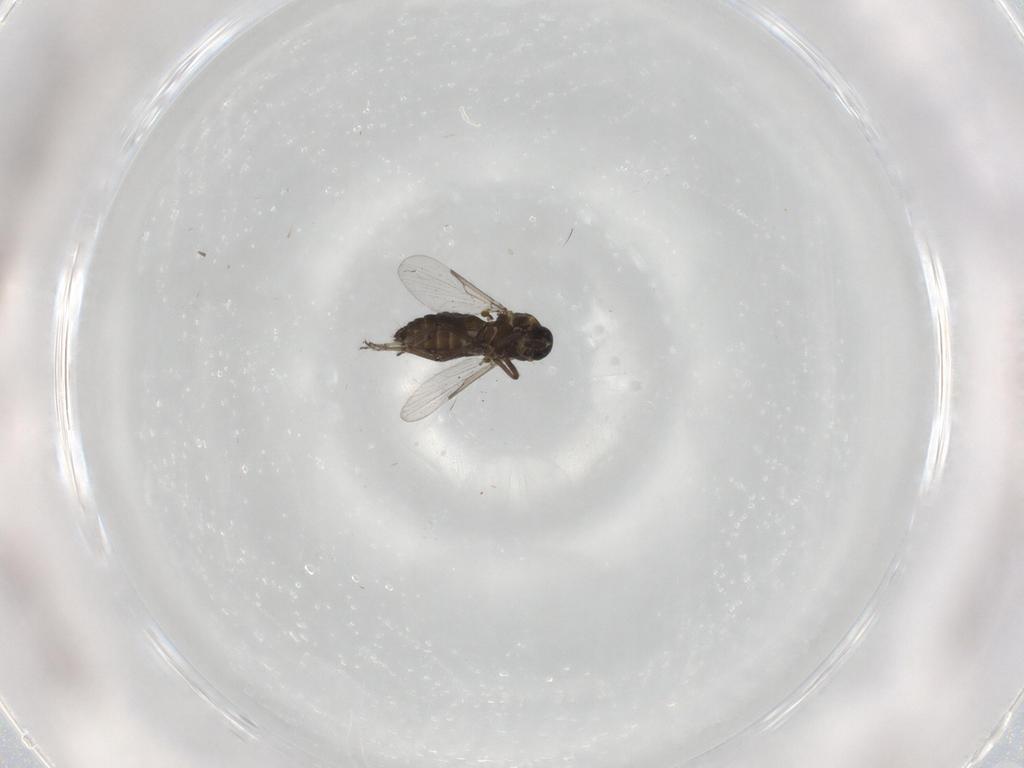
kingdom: Animalia
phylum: Arthropoda
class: Insecta
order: Diptera
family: Ceratopogonidae
